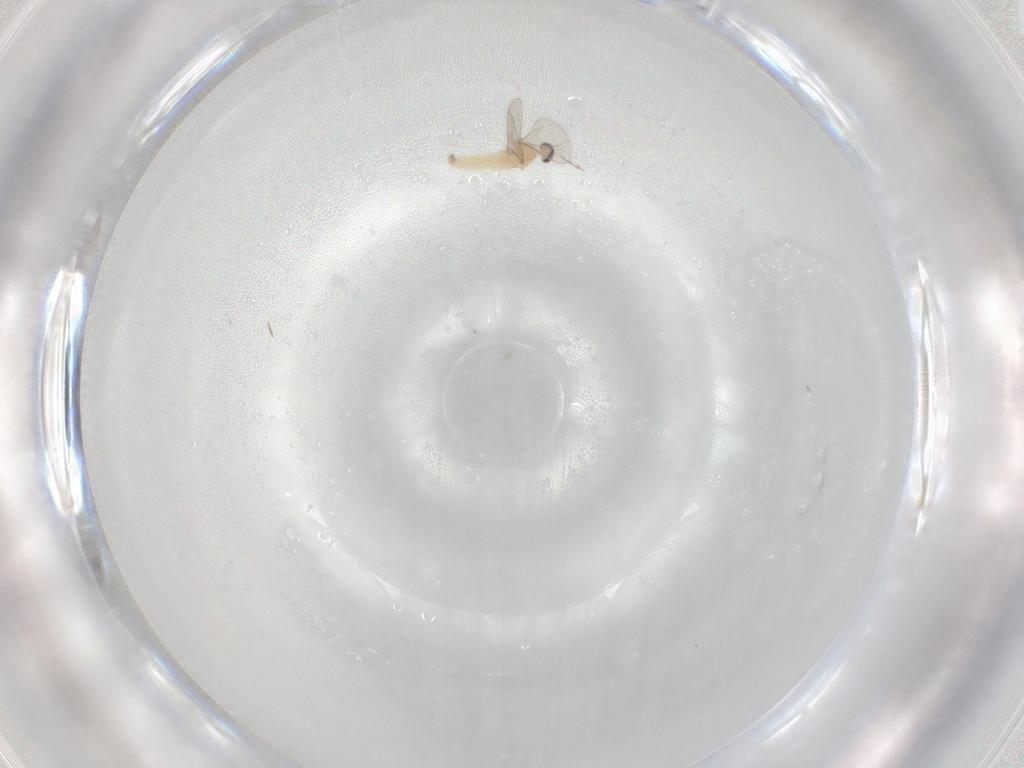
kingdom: Animalia
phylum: Arthropoda
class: Insecta
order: Diptera
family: Cecidomyiidae
